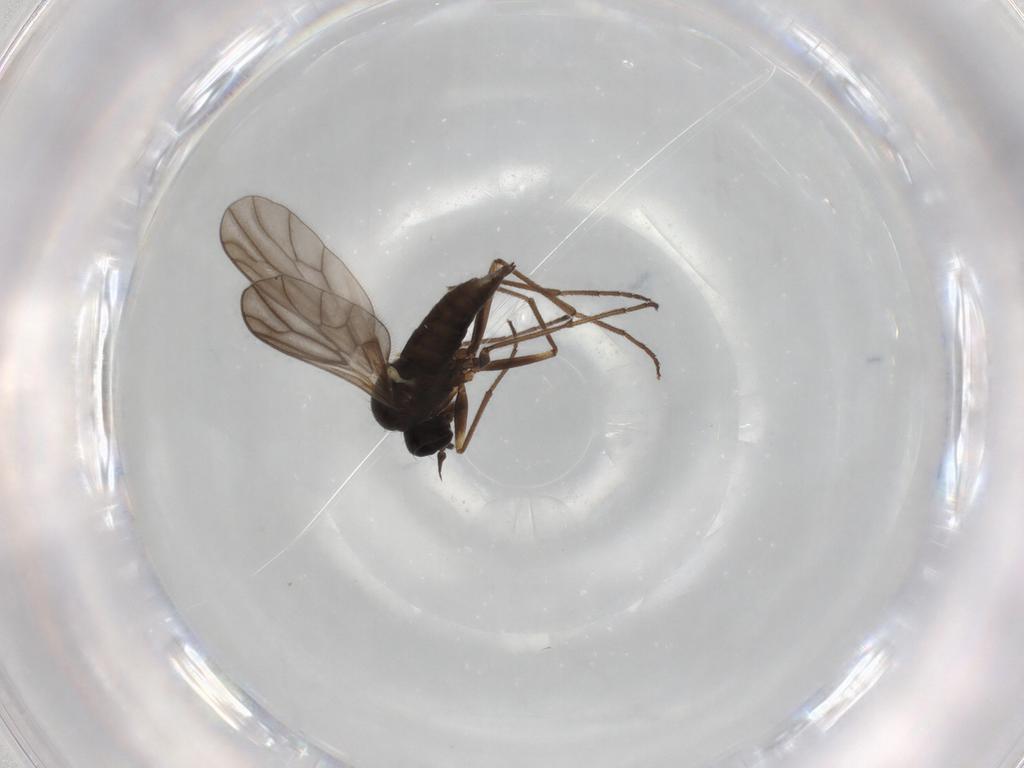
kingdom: Animalia
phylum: Arthropoda
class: Insecta
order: Diptera
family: Empididae
